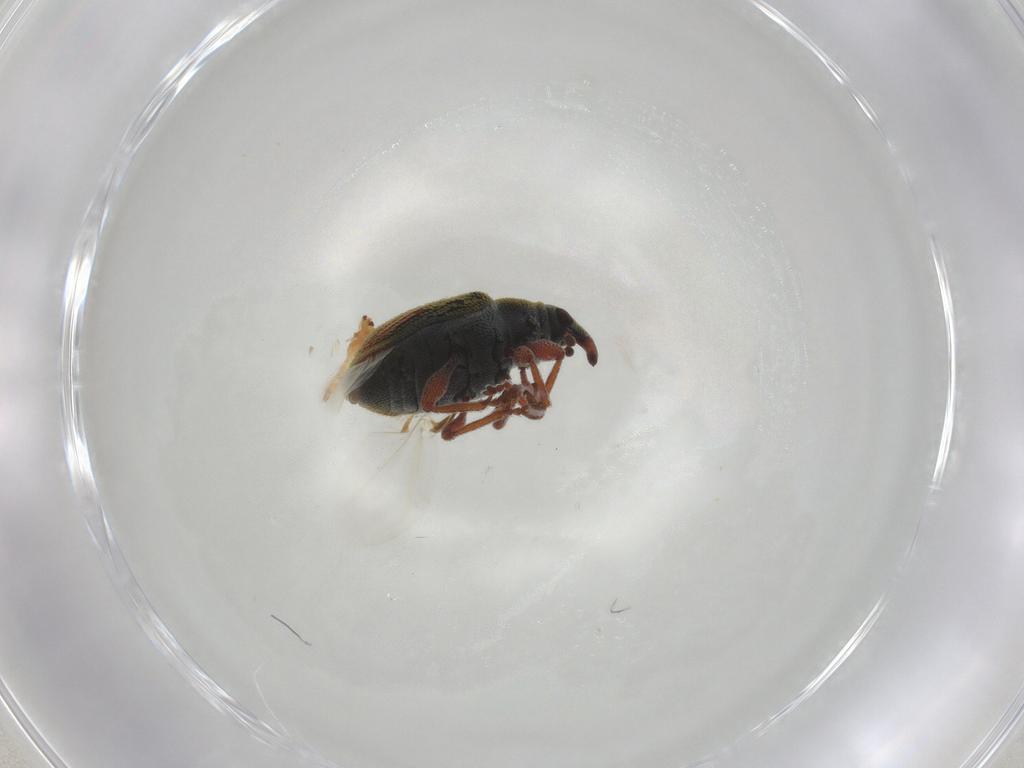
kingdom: Animalia
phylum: Arthropoda
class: Insecta
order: Coleoptera
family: Curculionidae
